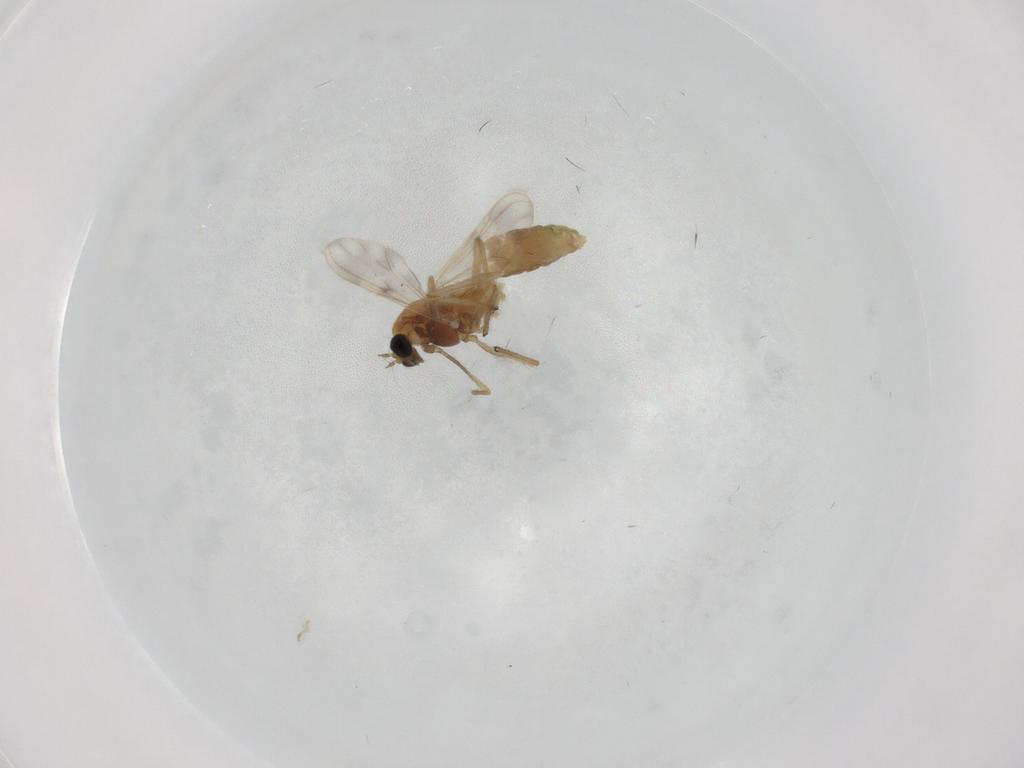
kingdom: Animalia
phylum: Arthropoda
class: Insecta
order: Diptera
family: Chironomidae
